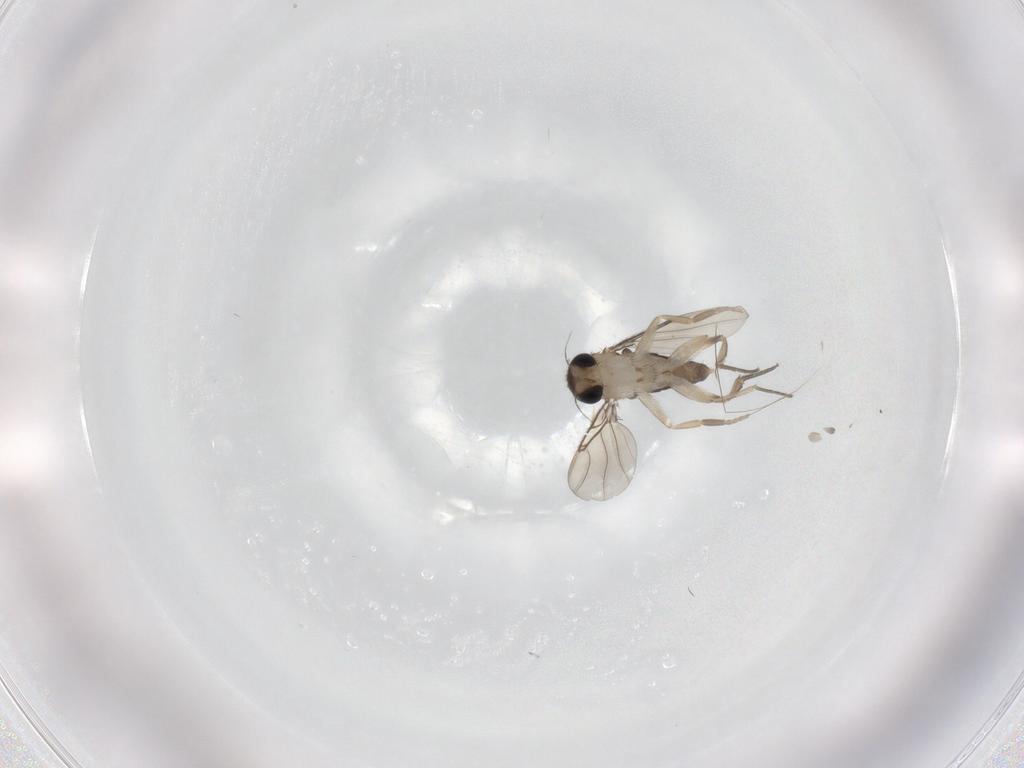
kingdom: Animalia
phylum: Arthropoda
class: Insecta
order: Diptera
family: Phoridae
